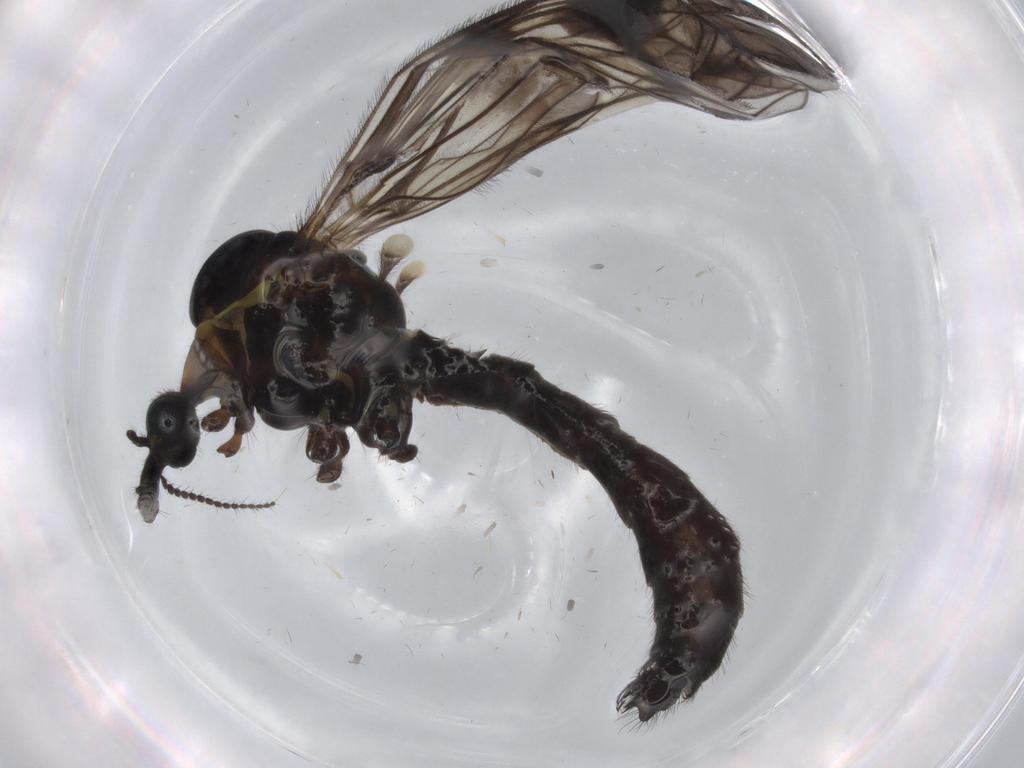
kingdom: Animalia
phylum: Arthropoda
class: Insecta
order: Diptera
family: Limoniidae
